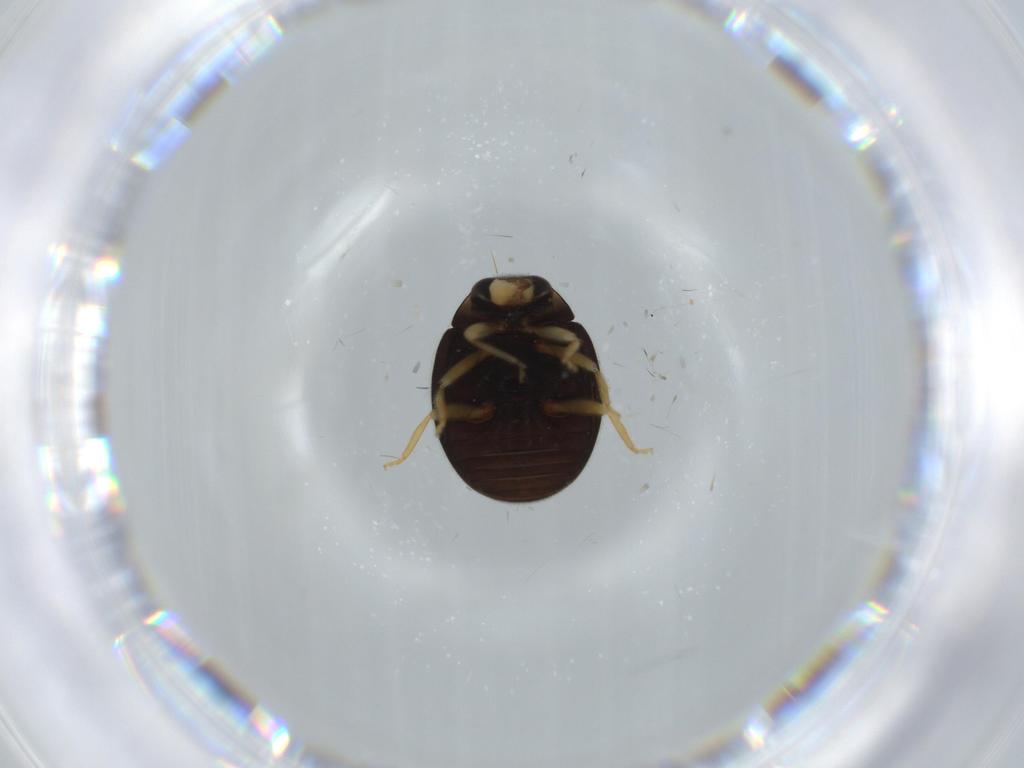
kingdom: Animalia
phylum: Arthropoda
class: Insecta
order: Coleoptera
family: Coccinellidae
